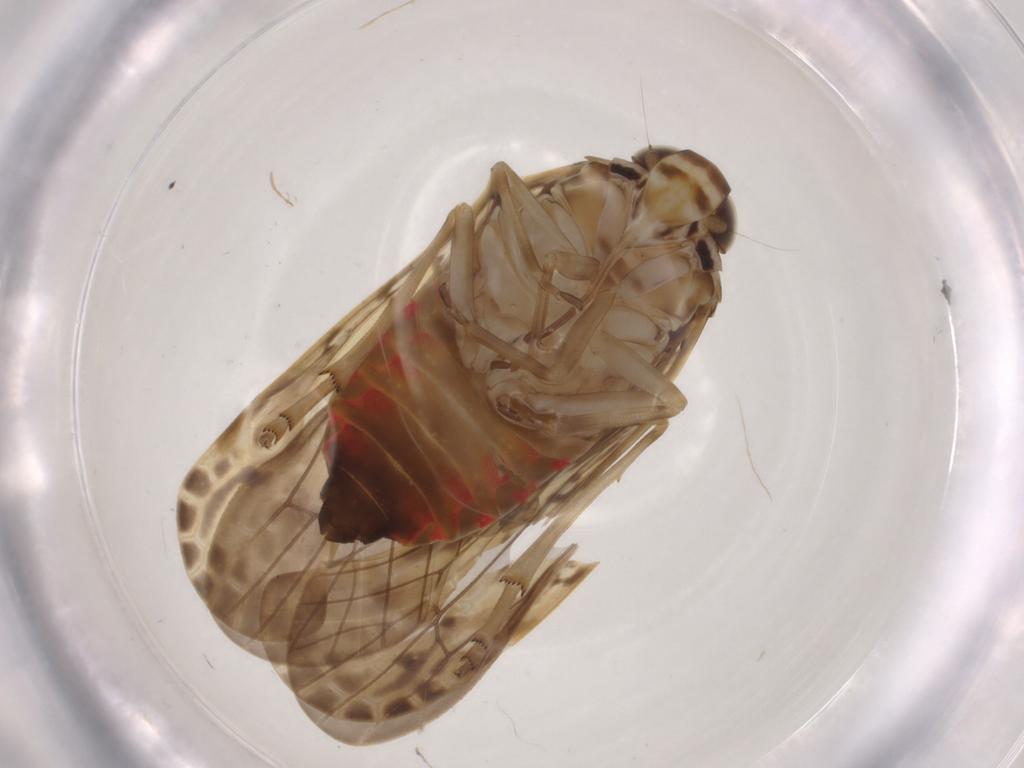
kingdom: Animalia
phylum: Arthropoda
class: Insecta
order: Hemiptera
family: Achilidae
